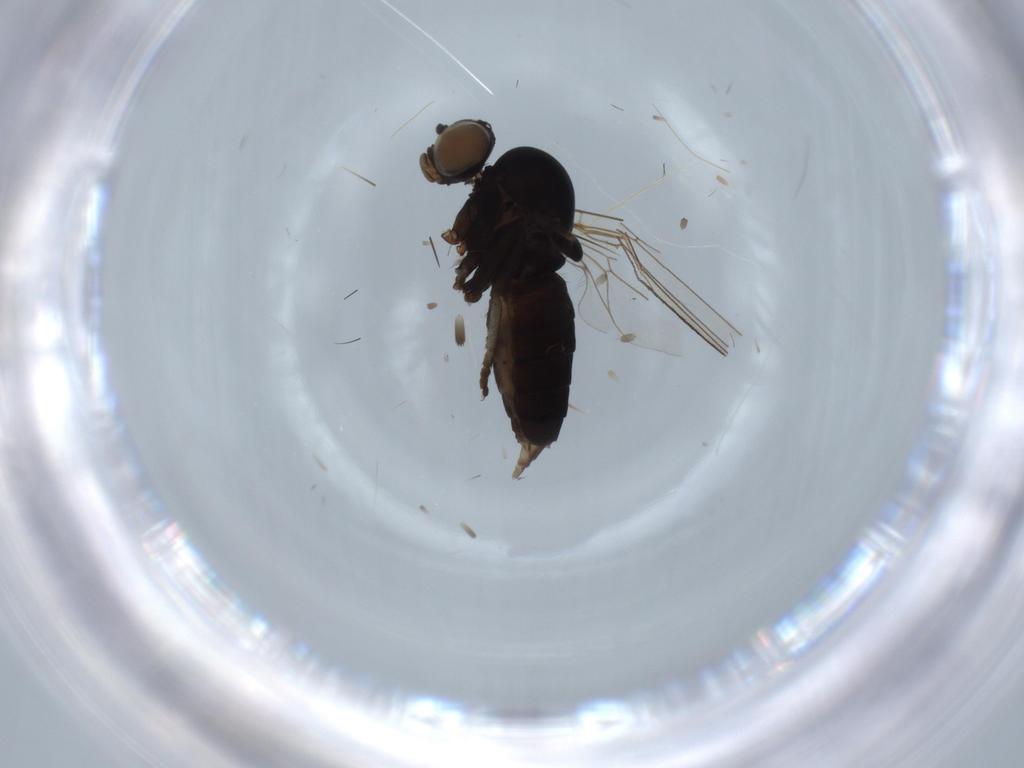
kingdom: Animalia
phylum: Arthropoda
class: Insecta
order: Diptera
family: Platypezidae
